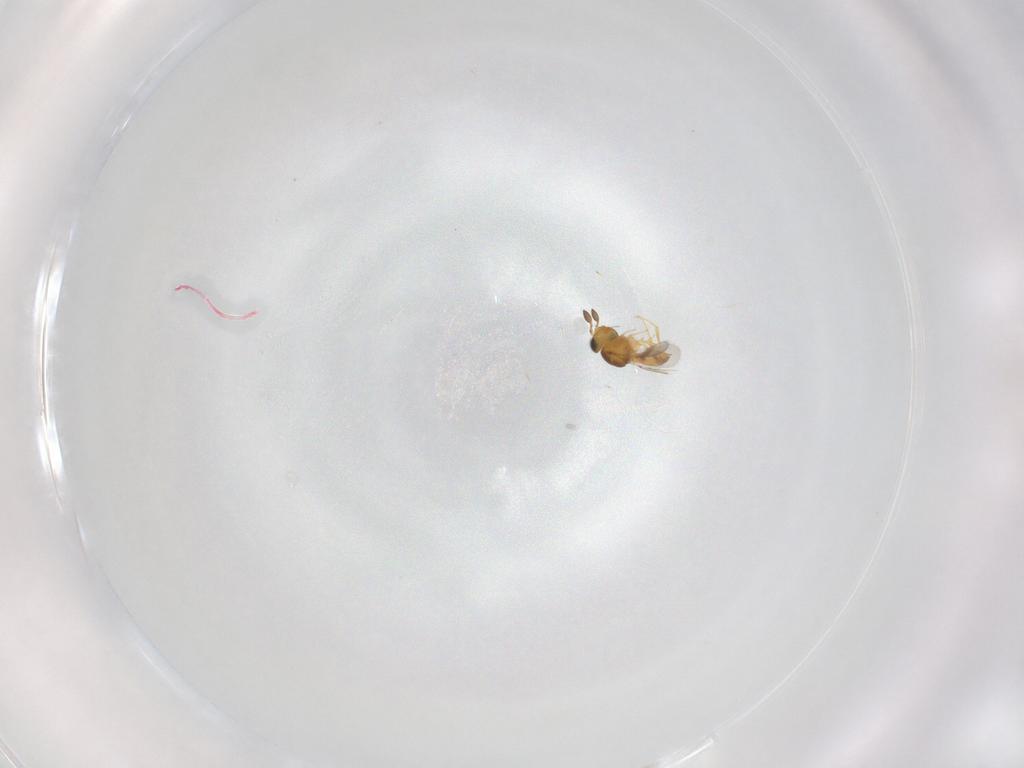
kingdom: Animalia
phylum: Arthropoda
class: Insecta
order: Hymenoptera
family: Scelionidae
